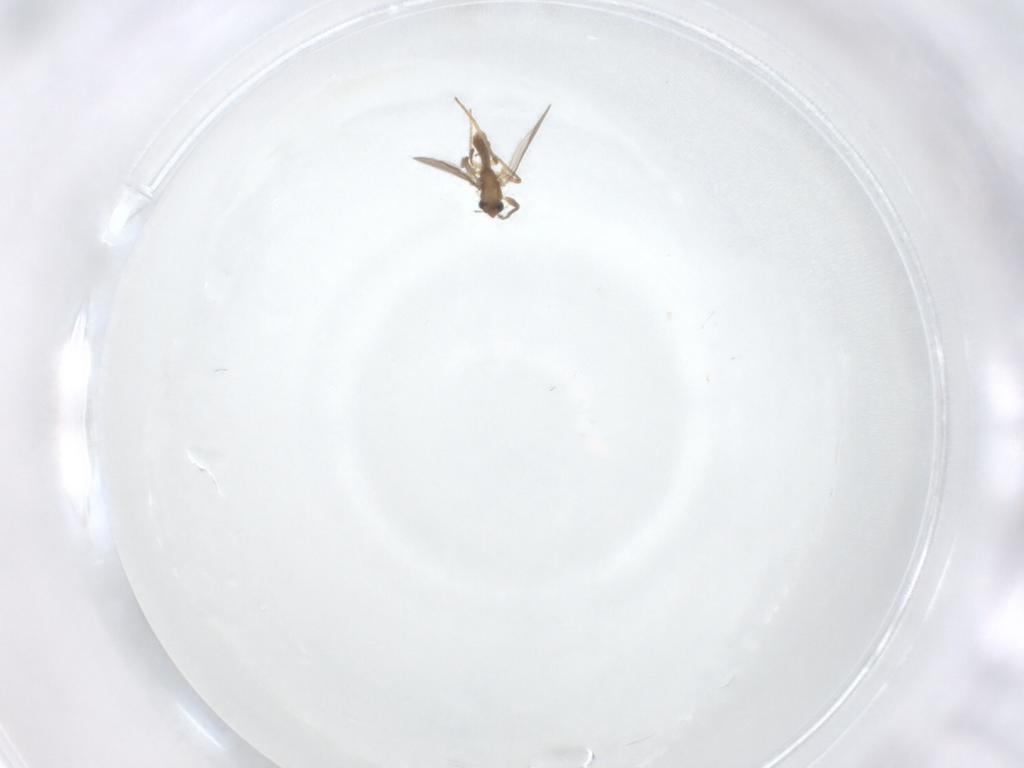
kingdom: Animalia
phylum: Arthropoda
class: Insecta
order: Diptera
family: Chironomidae
